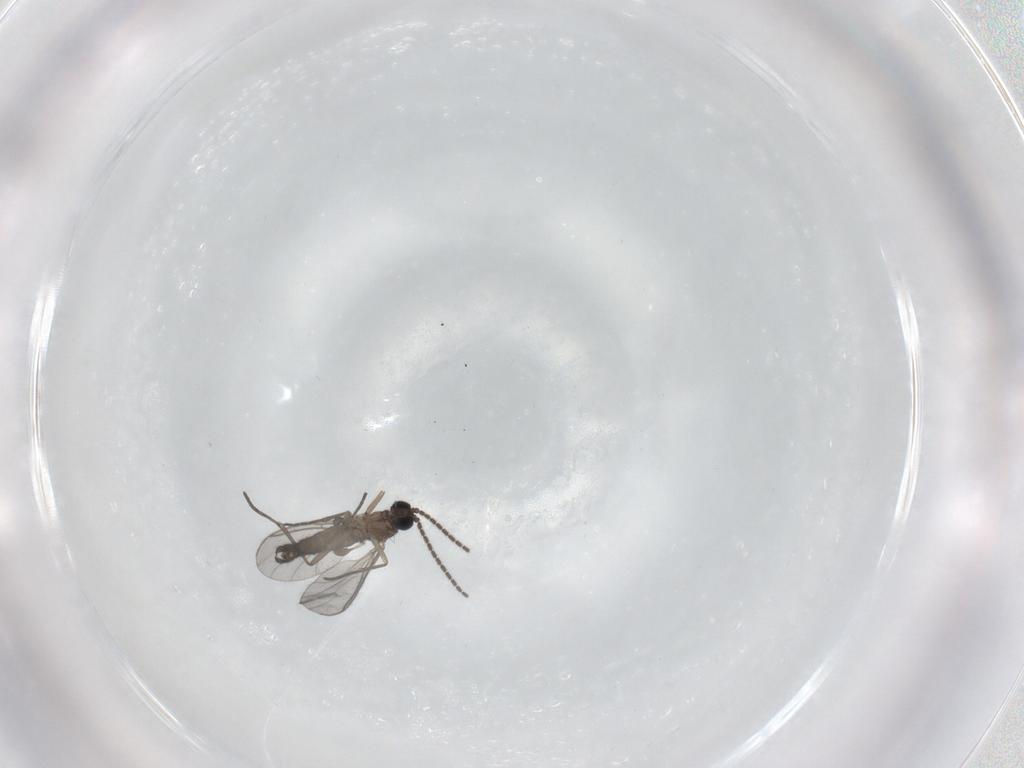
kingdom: Animalia
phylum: Arthropoda
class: Insecta
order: Diptera
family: Sciaridae
